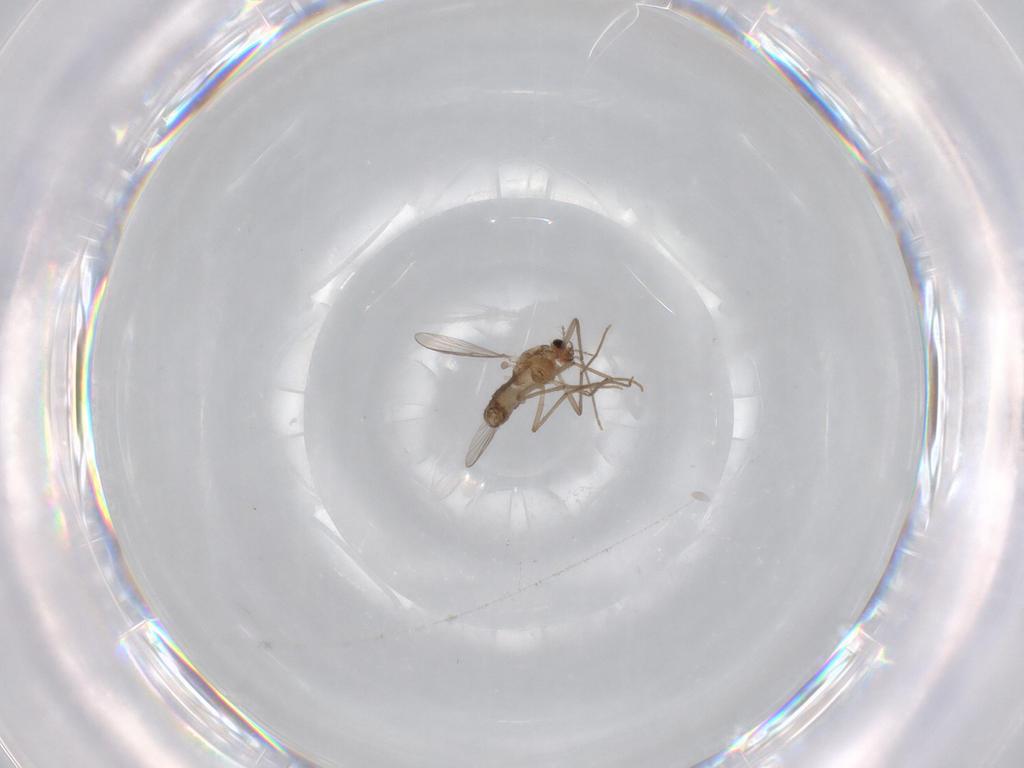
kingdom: Animalia
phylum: Arthropoda
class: Insecta
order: Diptera
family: Chironomidae
